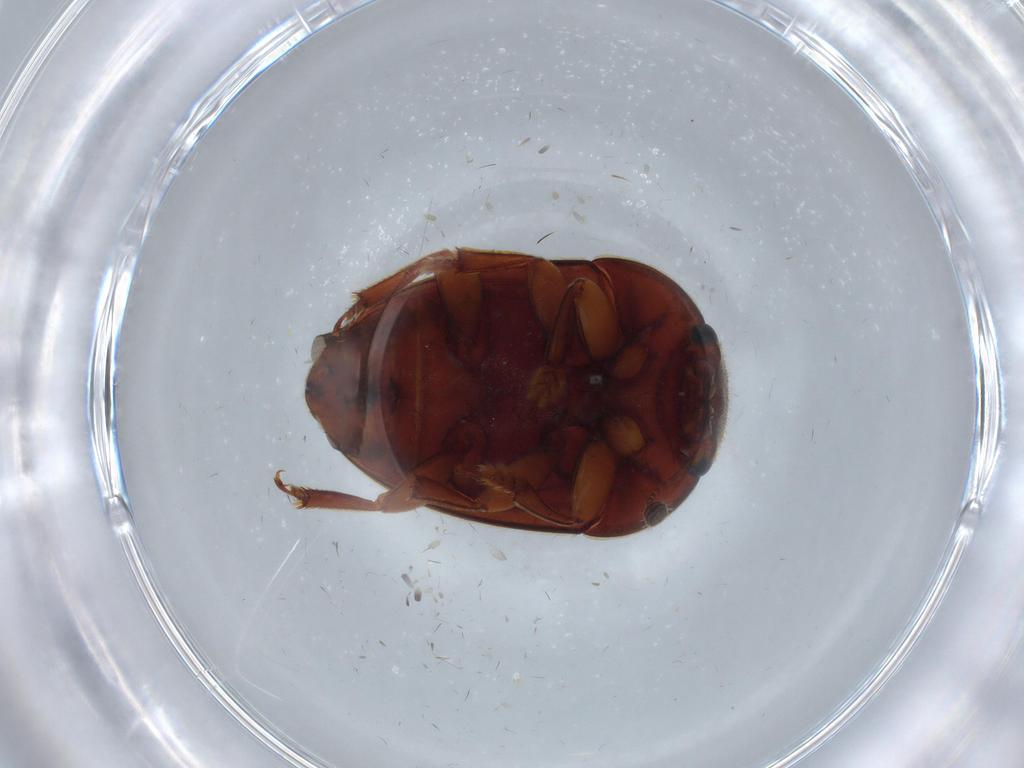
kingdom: Animalia
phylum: Arthropoda
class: Insecta
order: Coleoptera
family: Nitidulidae
